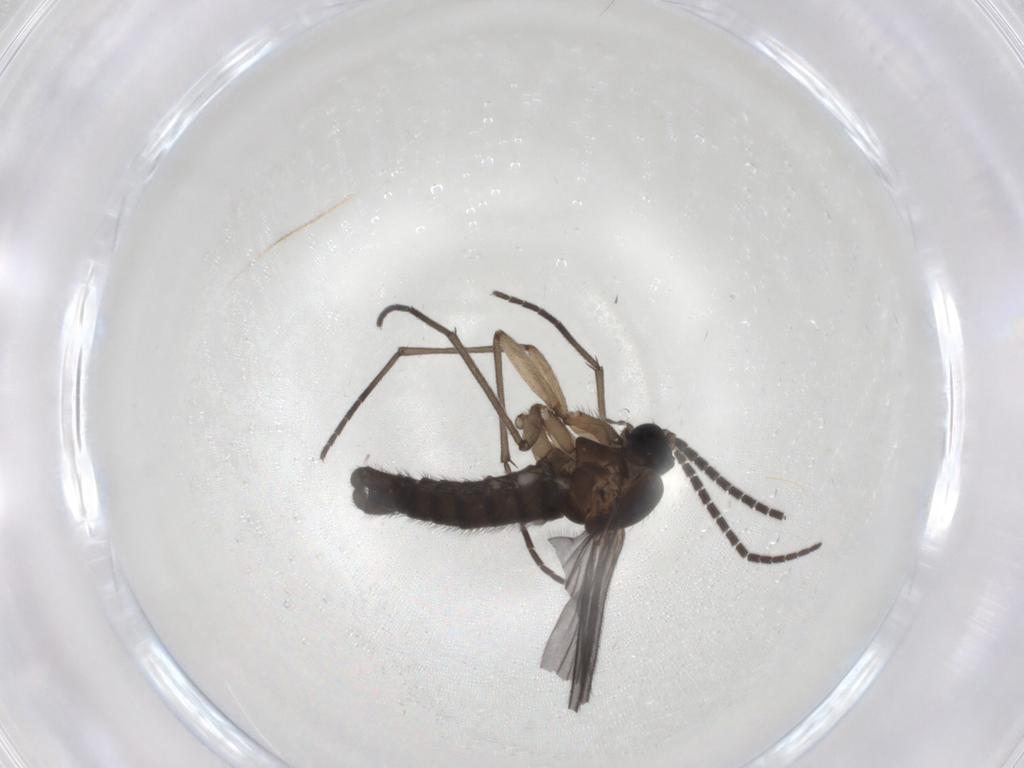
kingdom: Animalia
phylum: Arthropoda
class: Insecta
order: Diptera
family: Sciaridae
